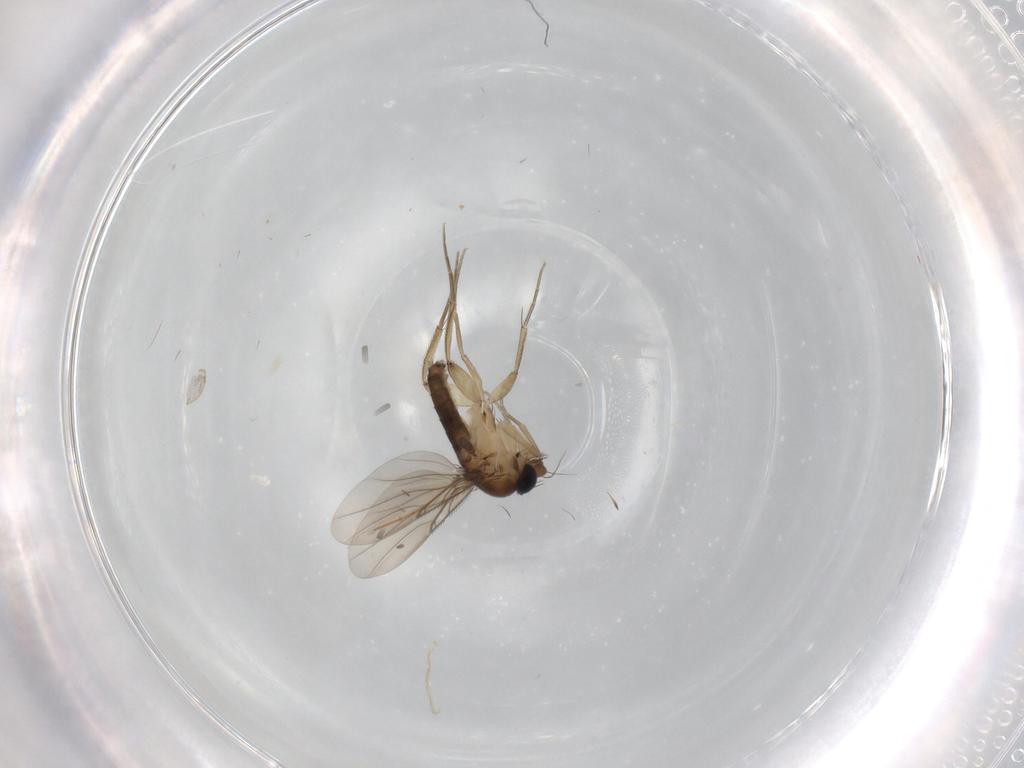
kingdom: Animalia
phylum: Arthropoda
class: Insecta
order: Diptera
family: Phoridae
